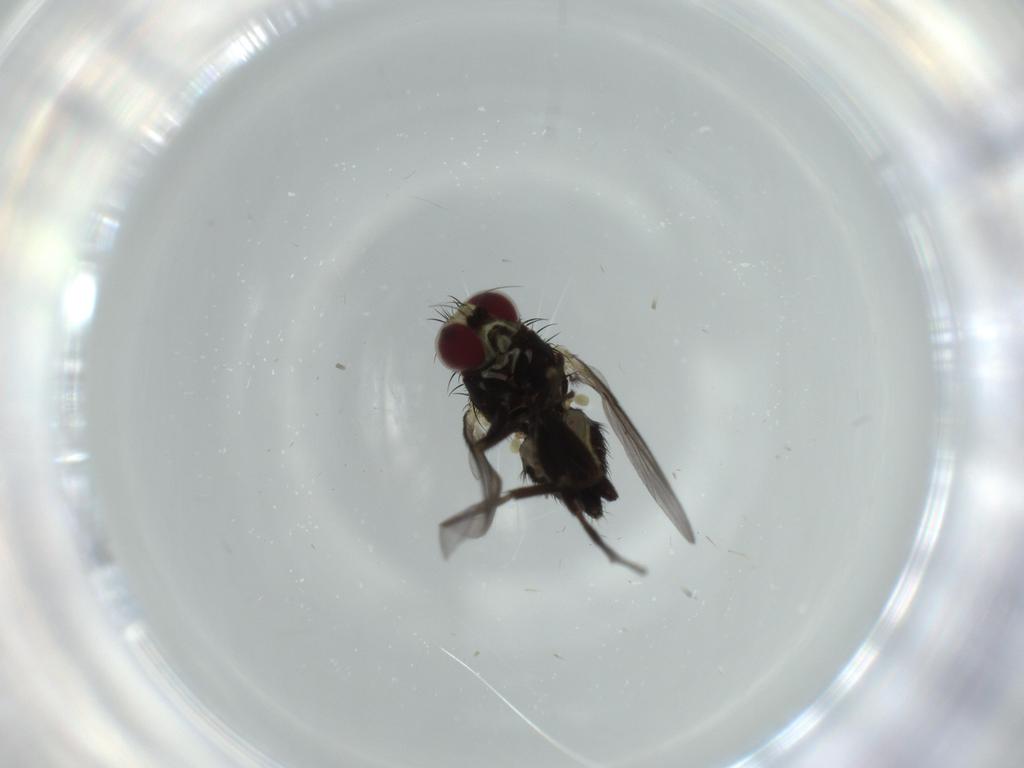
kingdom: Animalia
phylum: Arthropoda
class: Insecta
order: Diptera
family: Agromyzidae
